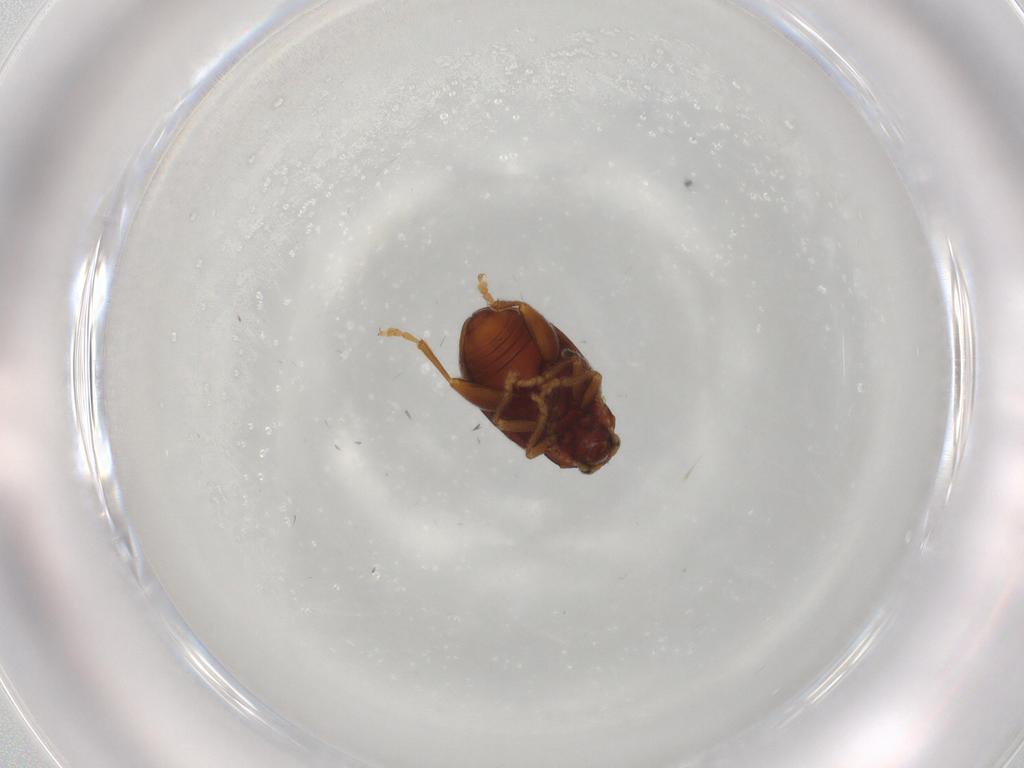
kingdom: Animalia
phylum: Arthropoda
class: Insecta
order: Coleoptera
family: Chrysomelidae
